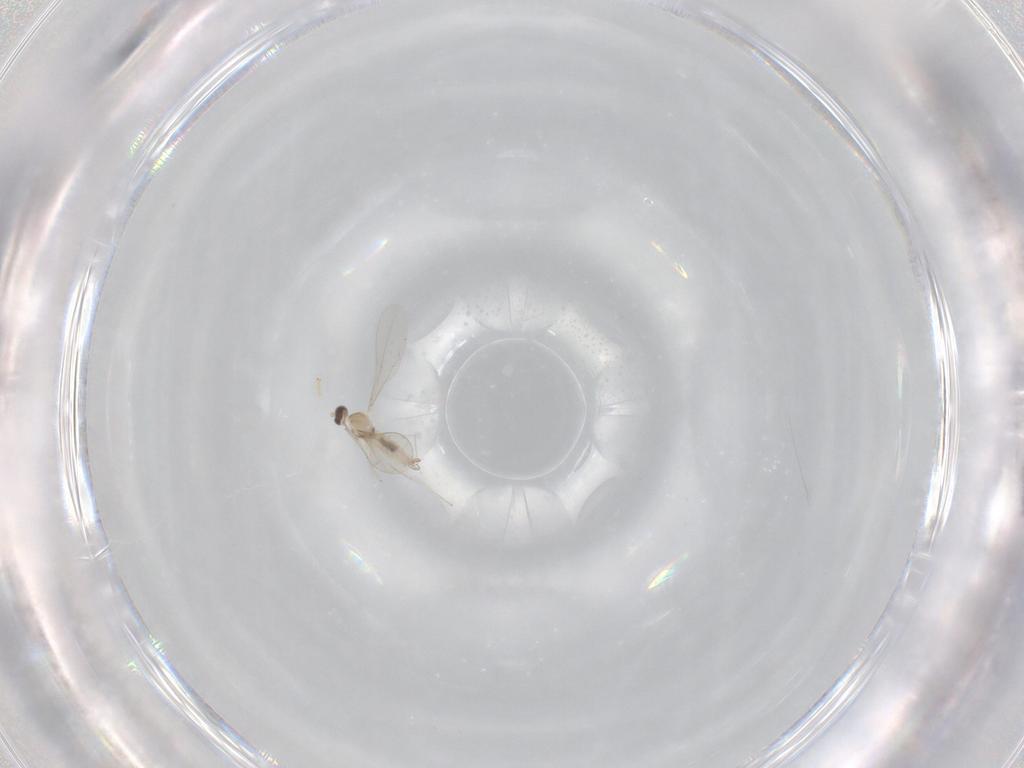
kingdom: Animalia
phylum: Arthropoda
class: Insecta
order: Diptera
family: Cecidomyiidae
